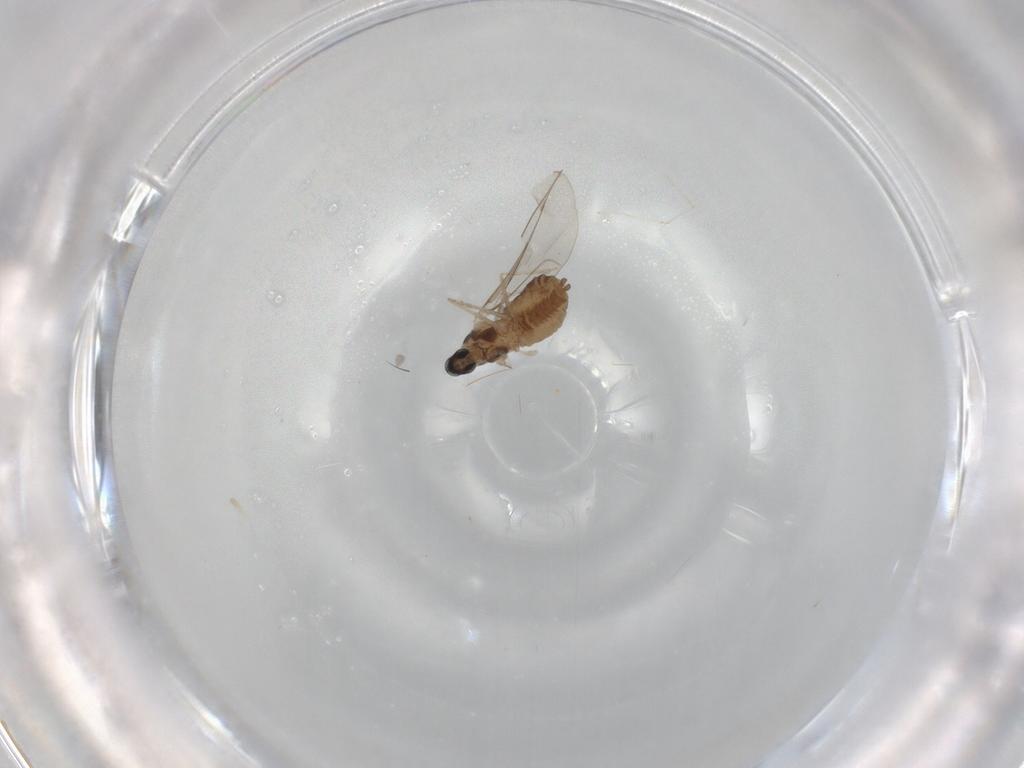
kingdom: Animalia
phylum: Arthropoda
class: Insecta
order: Diptera
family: Cecidomyiidae
